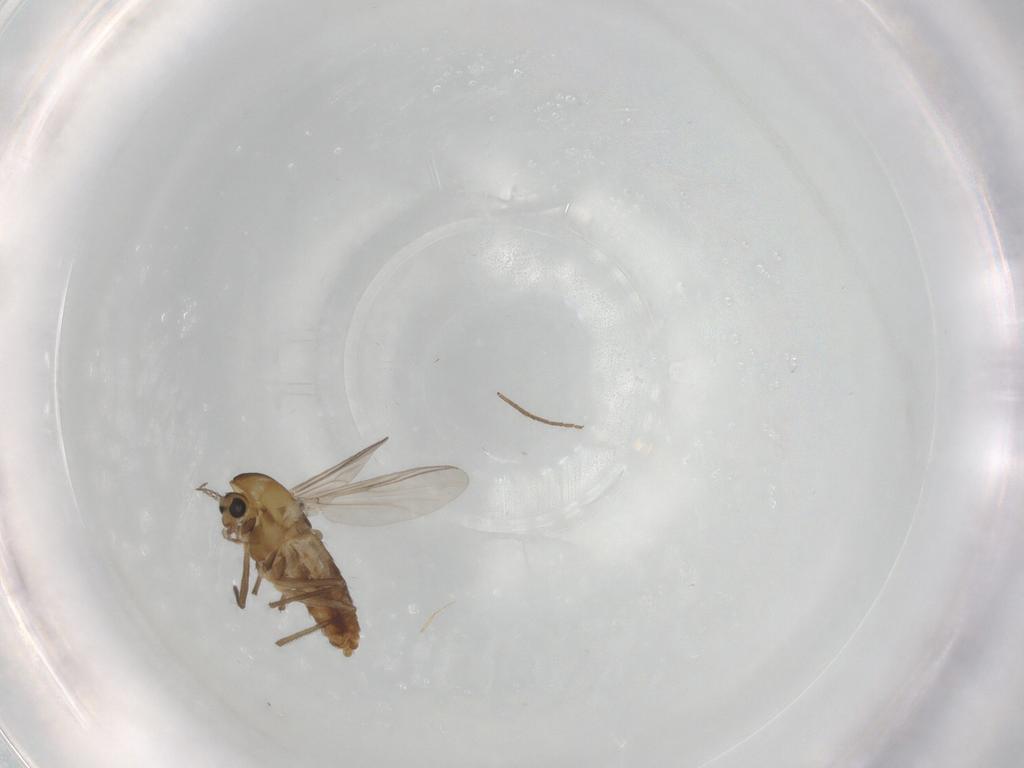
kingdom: Animalia
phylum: Arthropoda
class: Insecta
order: Diptera
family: Chironomidae
